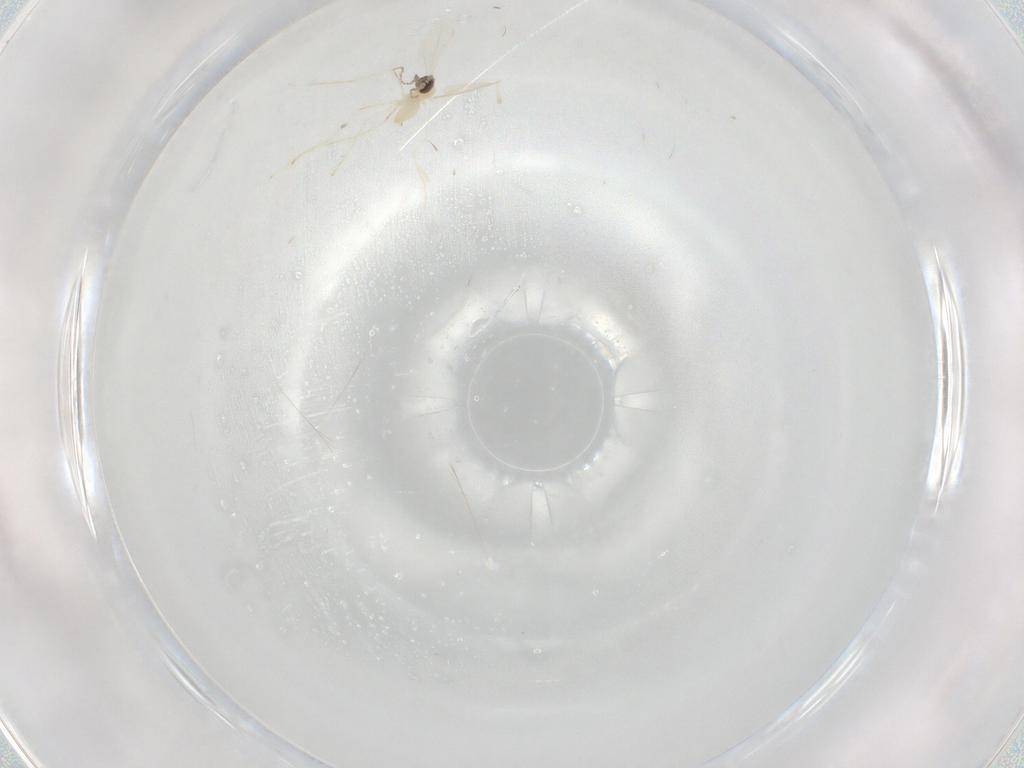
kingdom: Animalia
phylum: Arthropoda
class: Insecta
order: Diptera
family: Cecidomyiidae
